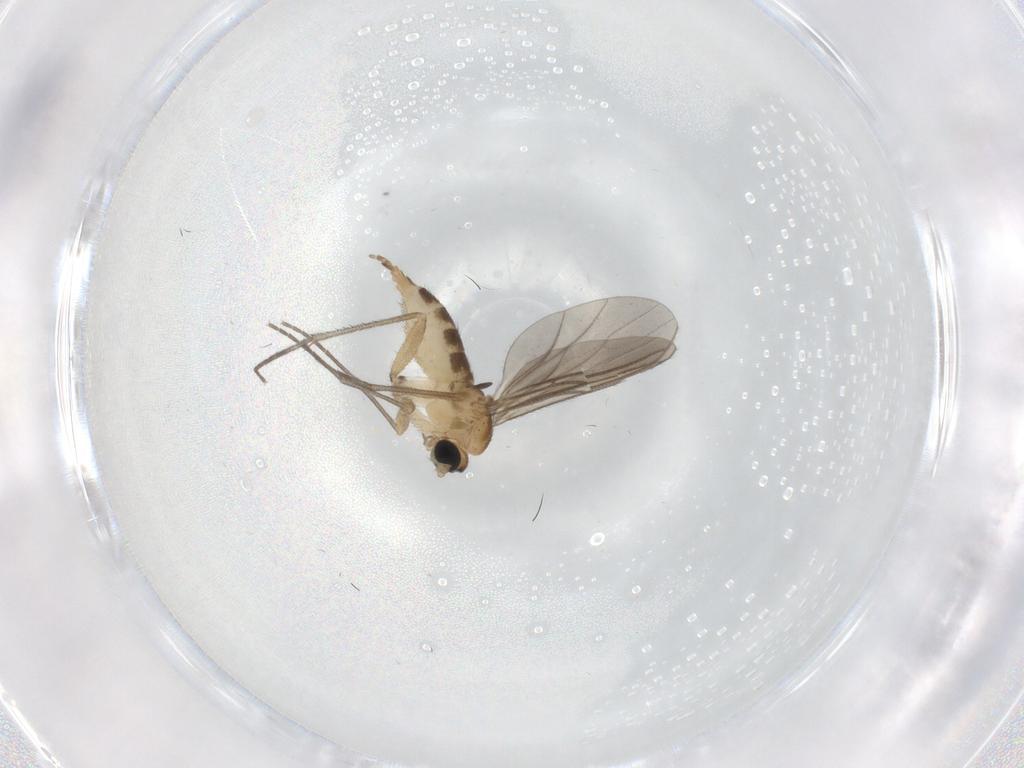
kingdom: Animalia
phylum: Arthropoda
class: Insecta
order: Diptera
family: Sciaridae
